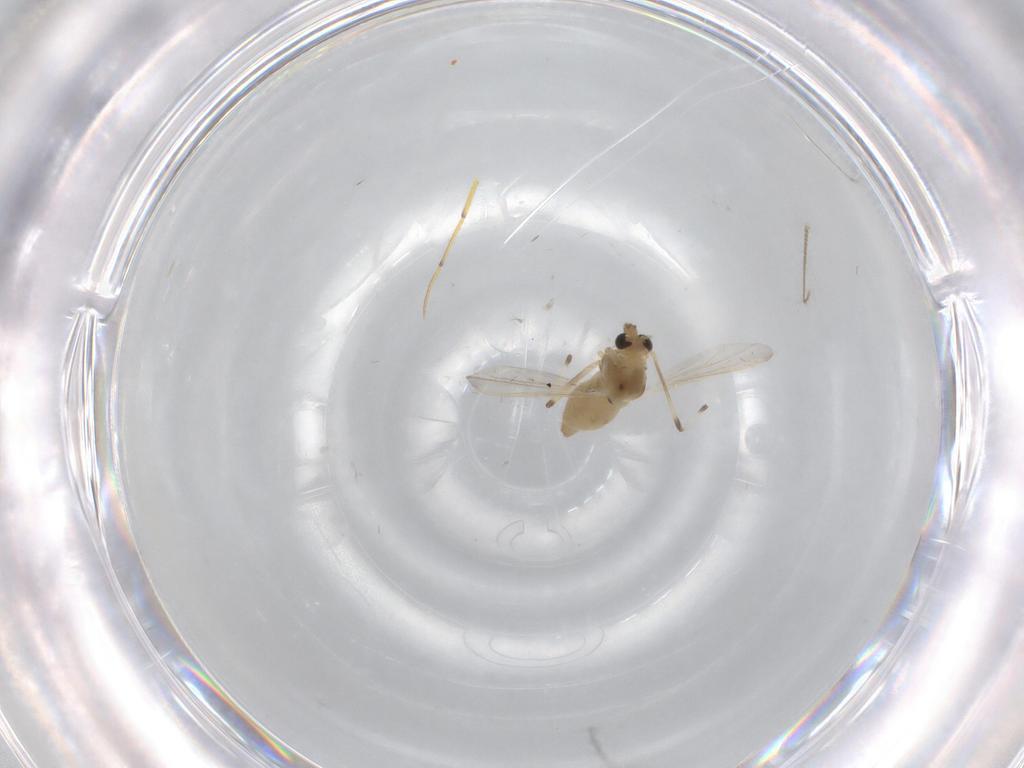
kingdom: Animalia
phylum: Arthropoda
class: Insecta
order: Diptera
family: Chironomidae
